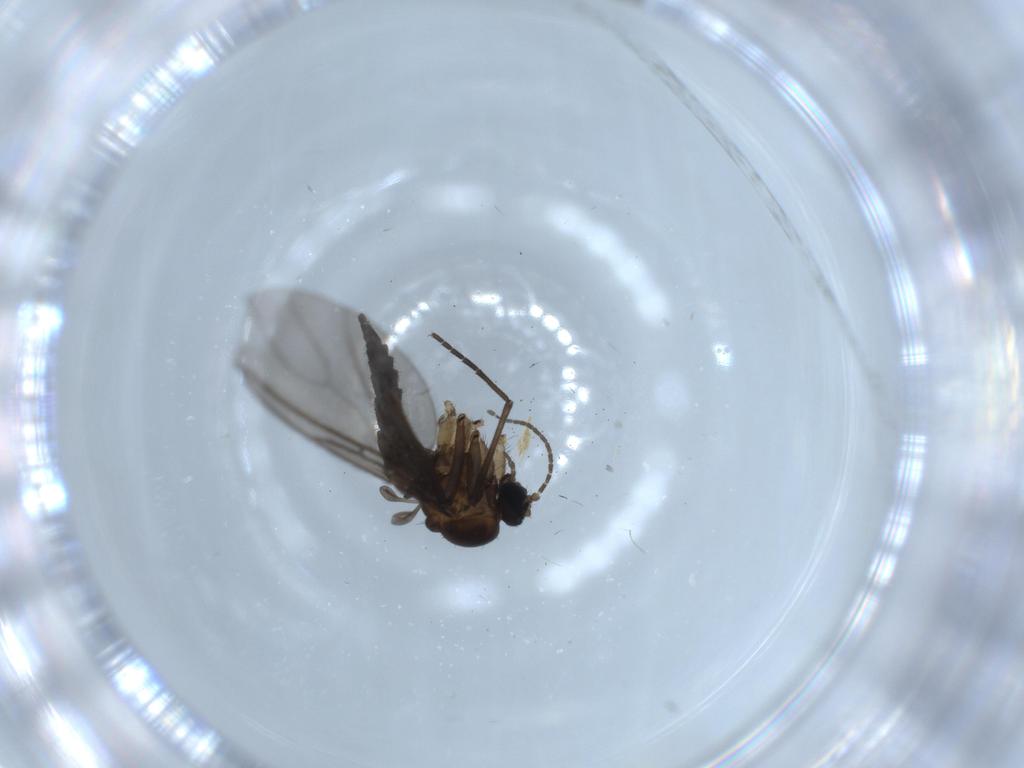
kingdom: Animalia
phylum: Arthropoda
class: Insecta
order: Diptera
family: Sciaridae
